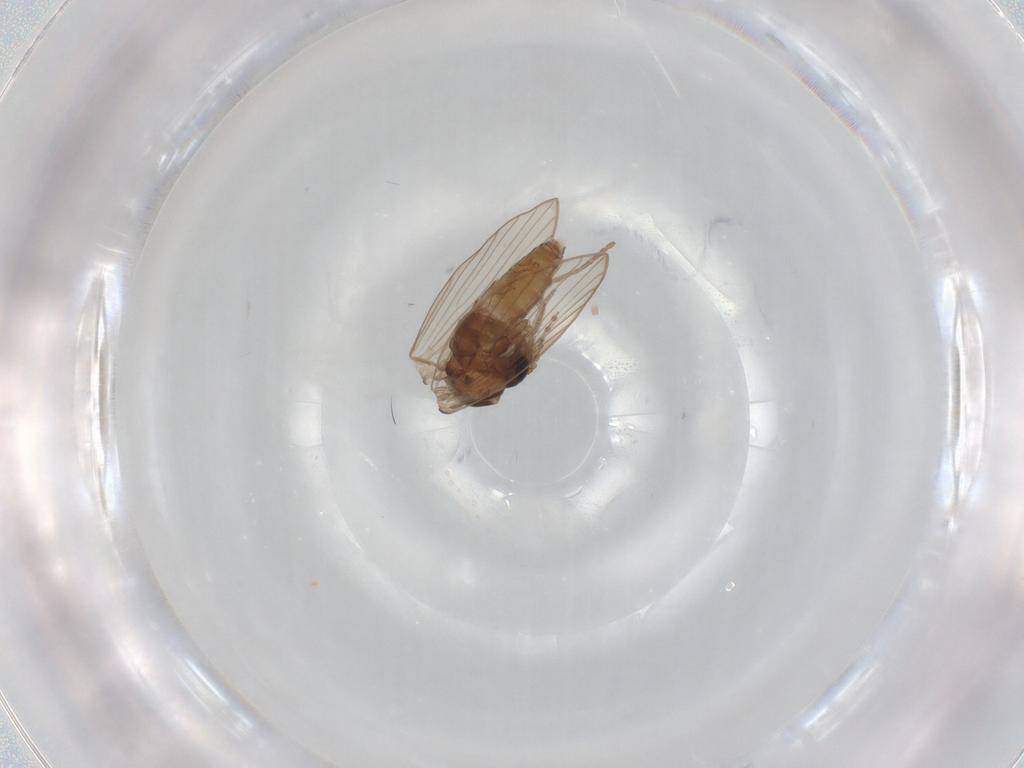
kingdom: Animalia
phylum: Arthropoda
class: Insecta
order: Diptera
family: Psychodidae
